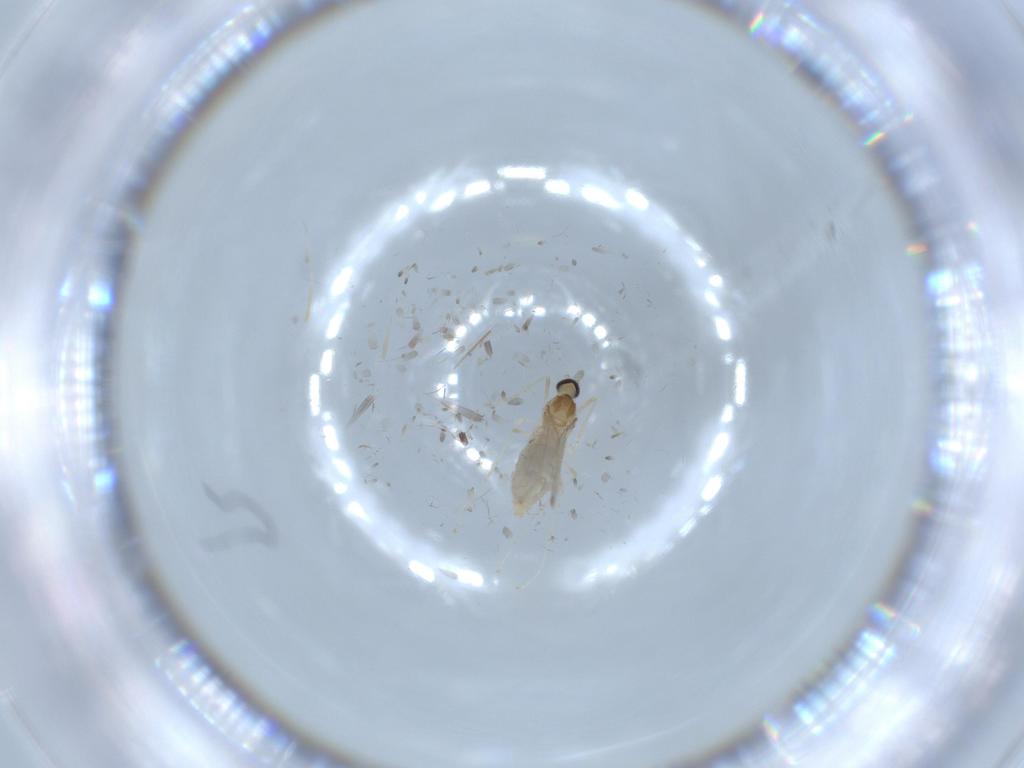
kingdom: Animalia
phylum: Arthropoda
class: Insecta
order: Diptera
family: Cecidomyiidae
